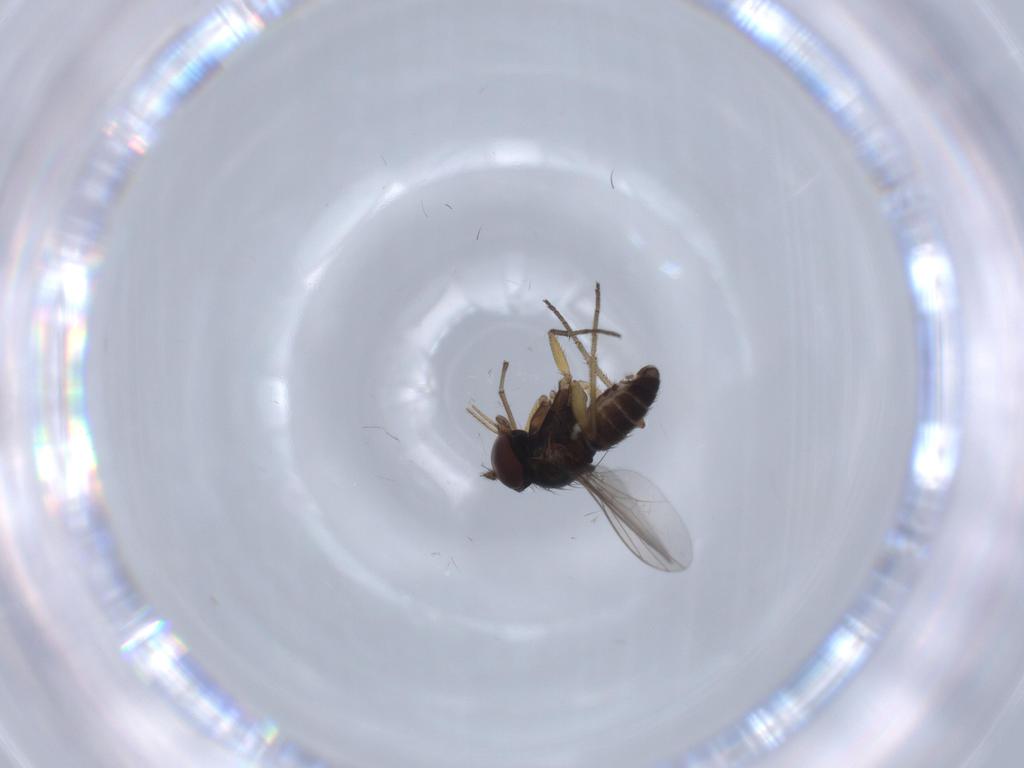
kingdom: Animalia
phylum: Arthropoda
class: Insecta
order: Diptera
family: Dolichopodidae
